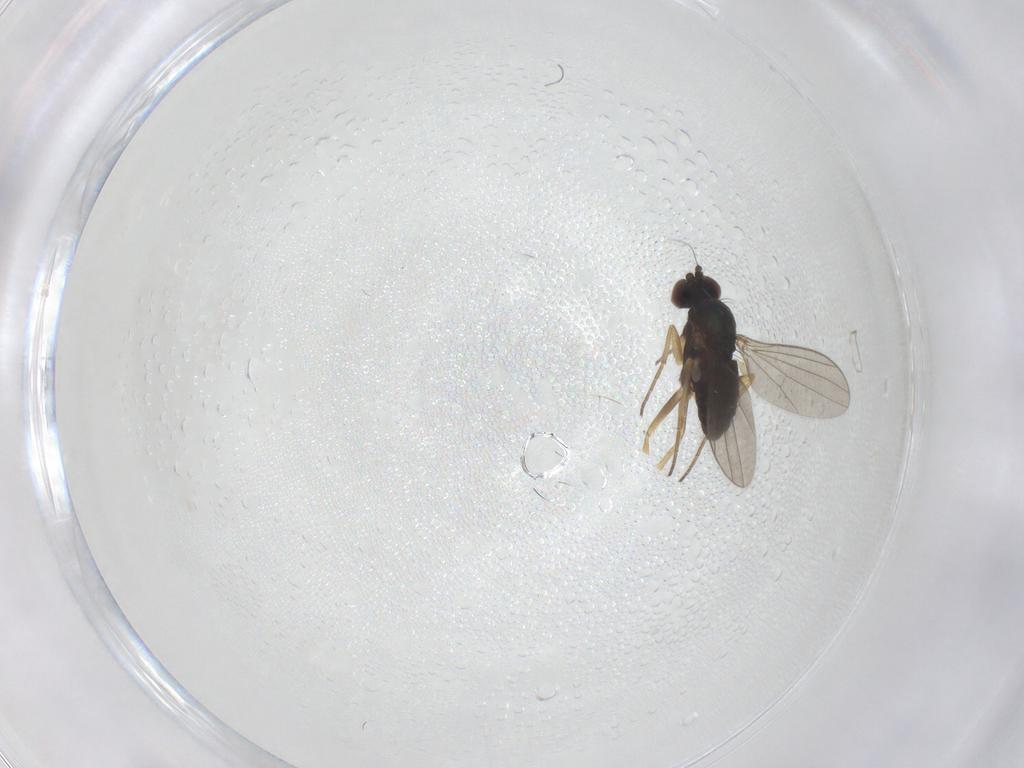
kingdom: Animalia
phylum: Arthropoda
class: Insecta
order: Diptera
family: Dolichopodidae
